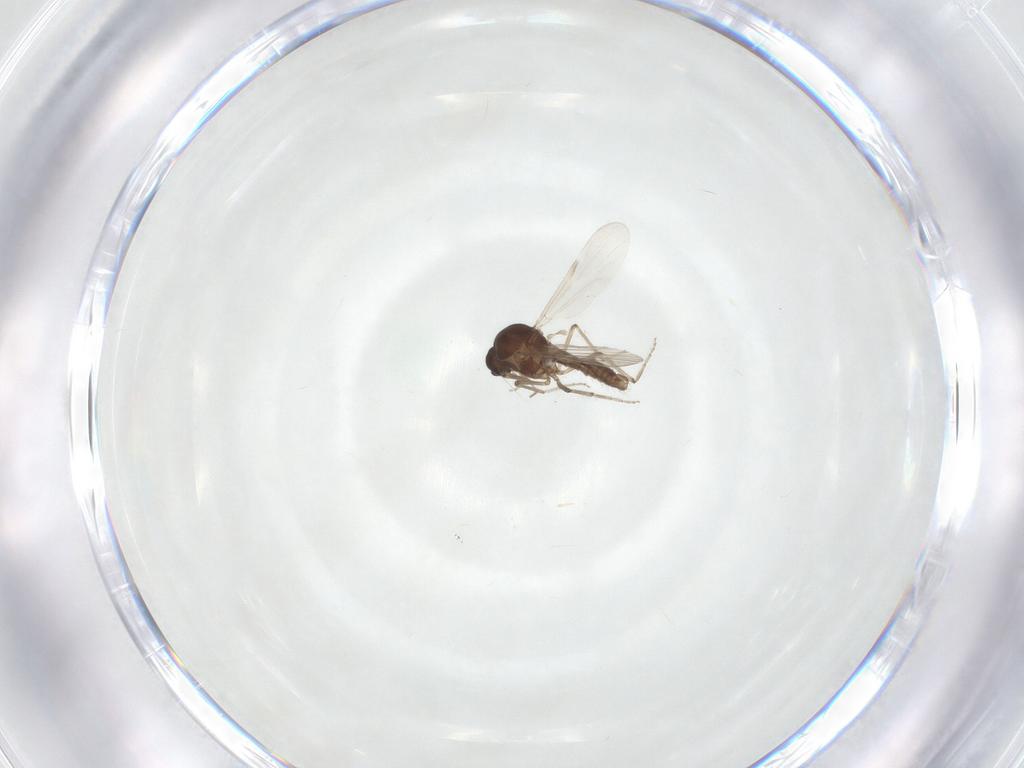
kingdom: Animalia
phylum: Arthropoda
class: Insecta
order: Diptera
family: Ceratopogonidae
